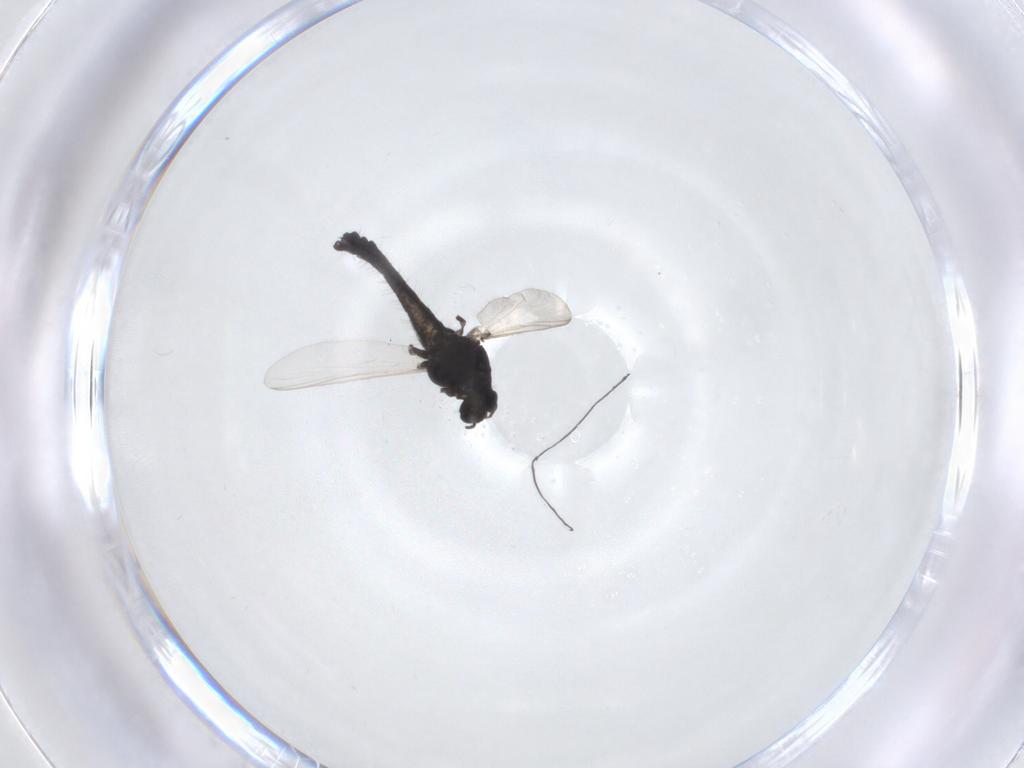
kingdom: Animalia
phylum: Arthropoda
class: Insecta
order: Diptera
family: Chironomidae
